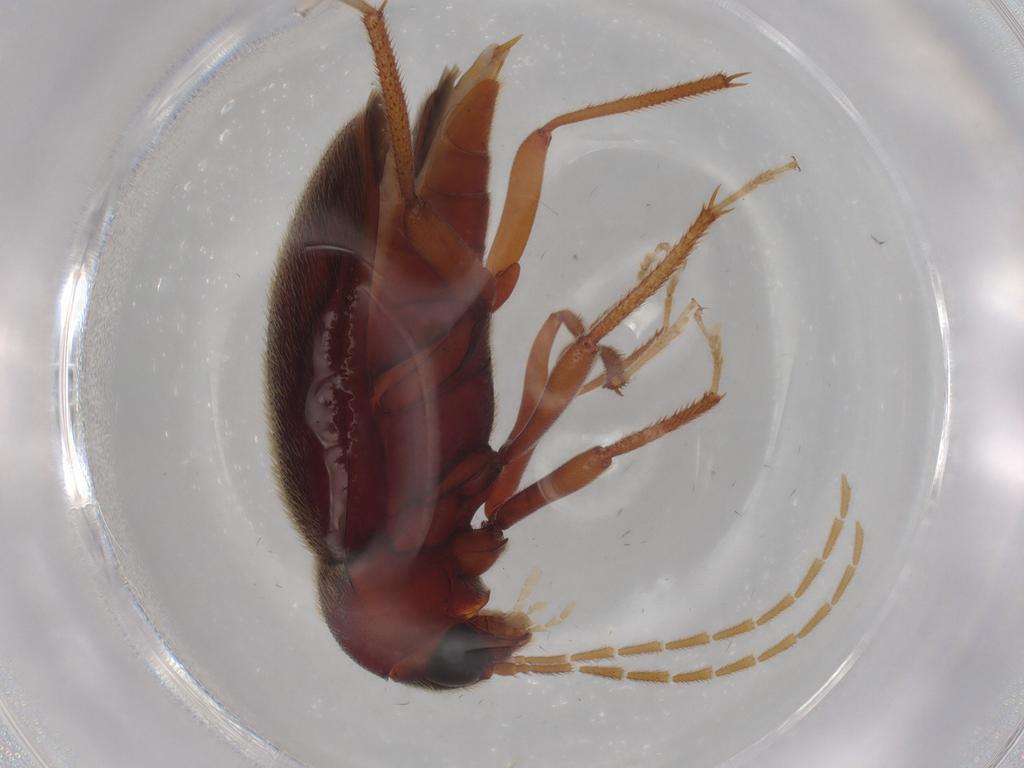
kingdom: Animalia
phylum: Arthropoda
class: Insecta
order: Coleoptera
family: Ptilodactylidae
